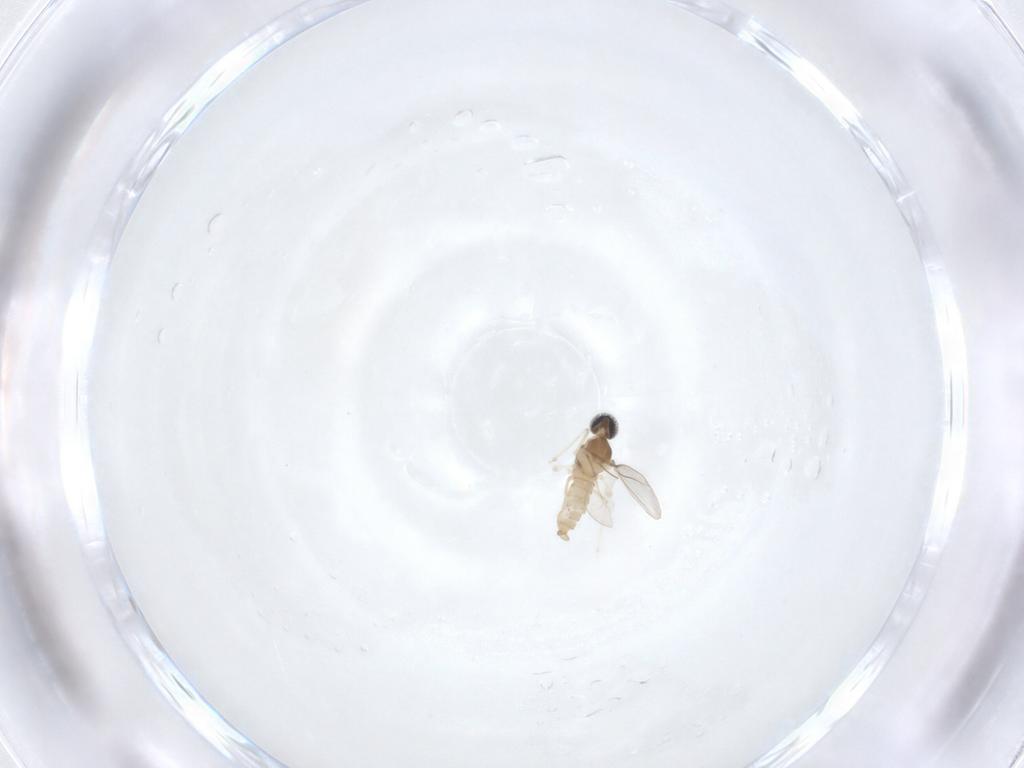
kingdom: Animalia
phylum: Arthropoda
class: Insecta
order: Diptera
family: Cecidomyiidae
